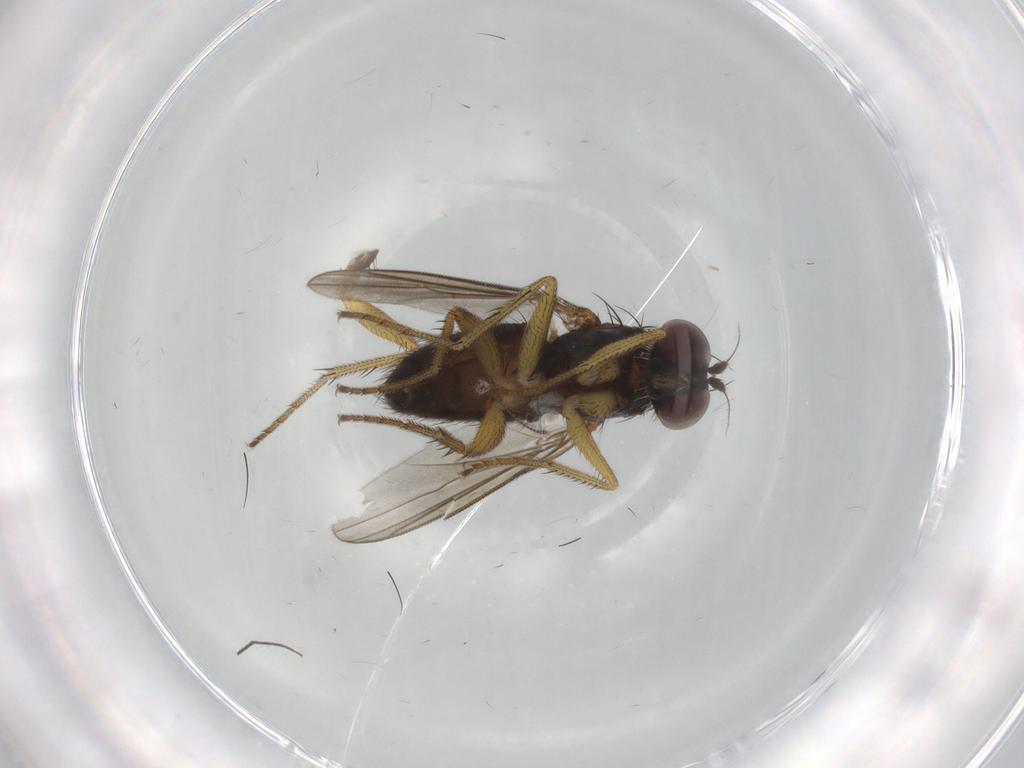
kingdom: Animalia
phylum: Arthropoda
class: Insecta
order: Diptera
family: Dolichopodidae
